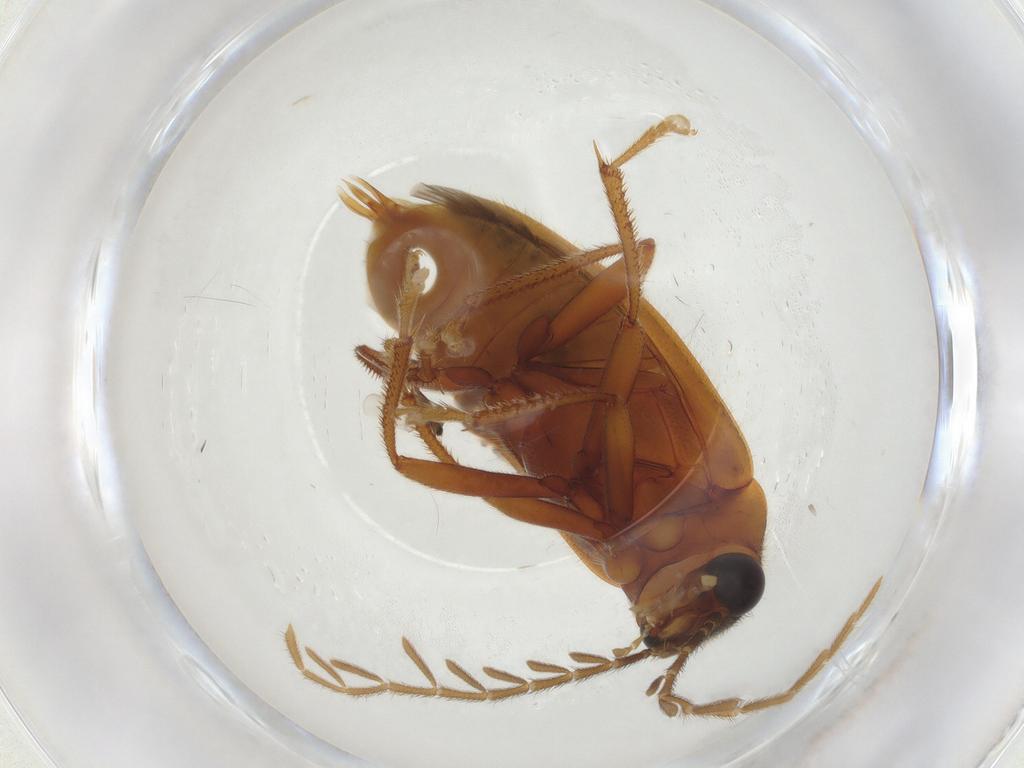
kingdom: Animalia
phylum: Arthropoda
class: Insecta
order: Coleoptera
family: Ptilodactylidae
